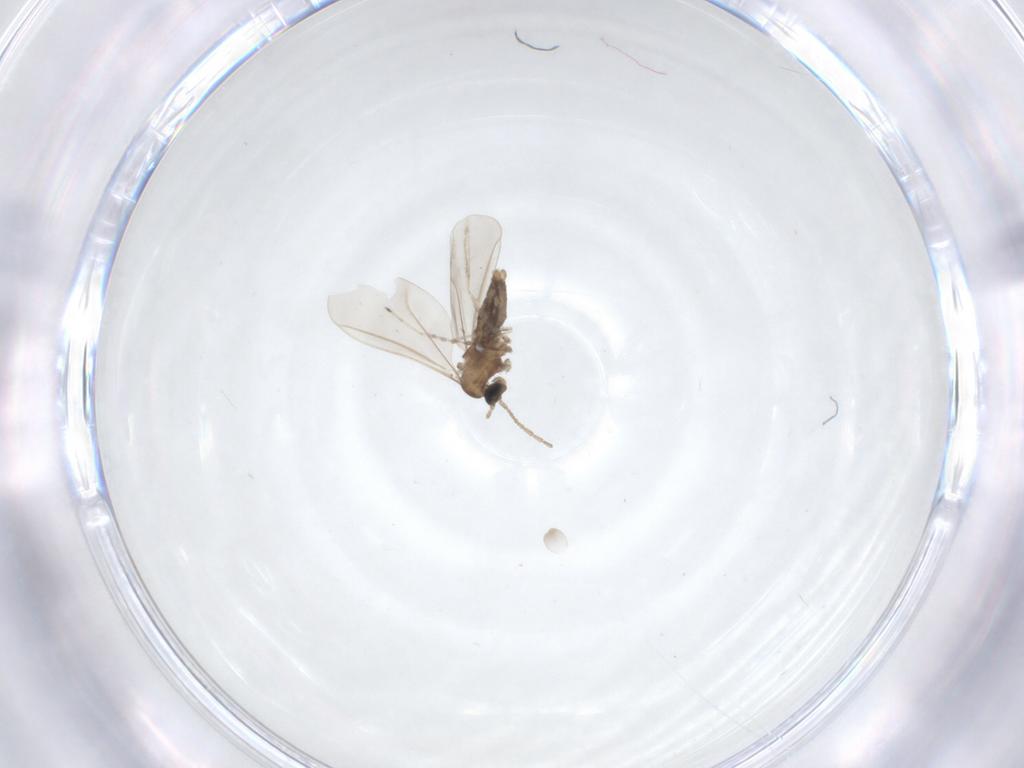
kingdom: Animalia
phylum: Arthropoda
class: Insecta
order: Diptera
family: Cecidomyiidae
